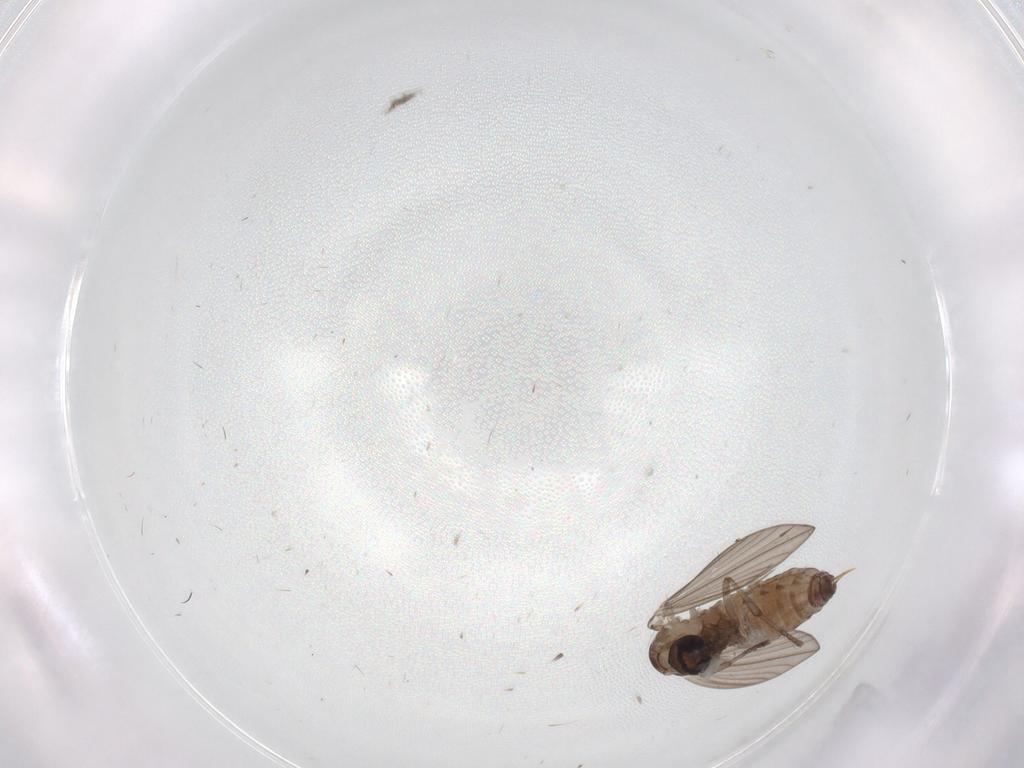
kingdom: Animalia
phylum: Arthropoda
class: Insecta
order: Diptera
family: Psychodidae
